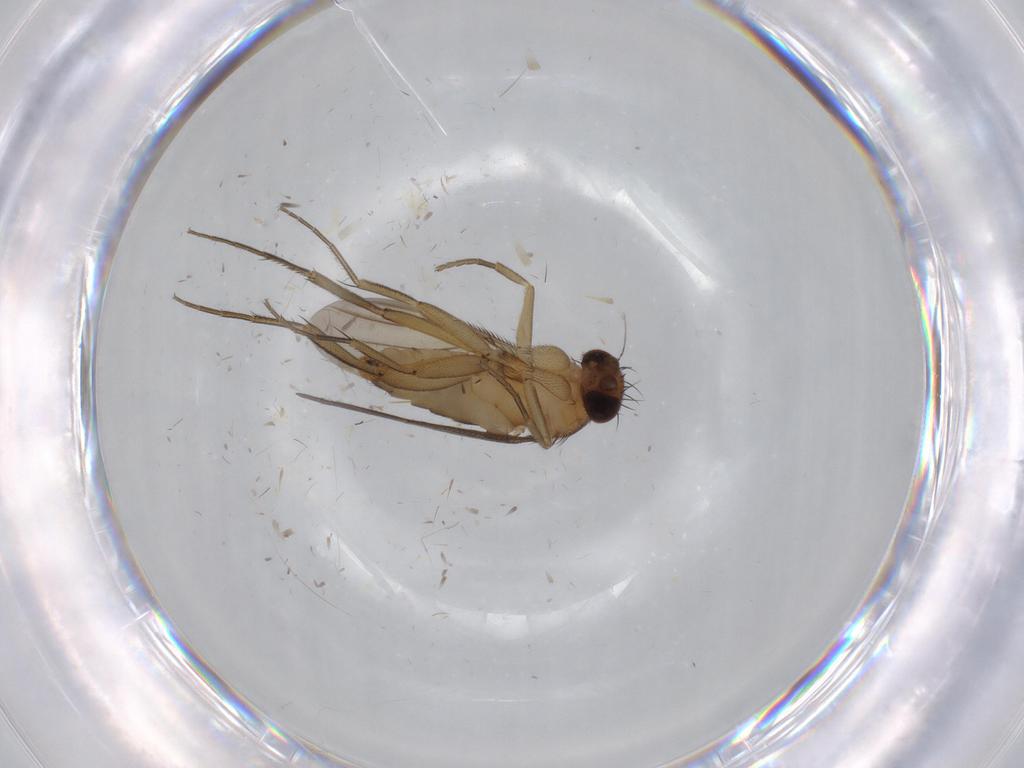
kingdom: Animalia
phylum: Arthropoda
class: Insecta
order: Diptera
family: Phoridae
